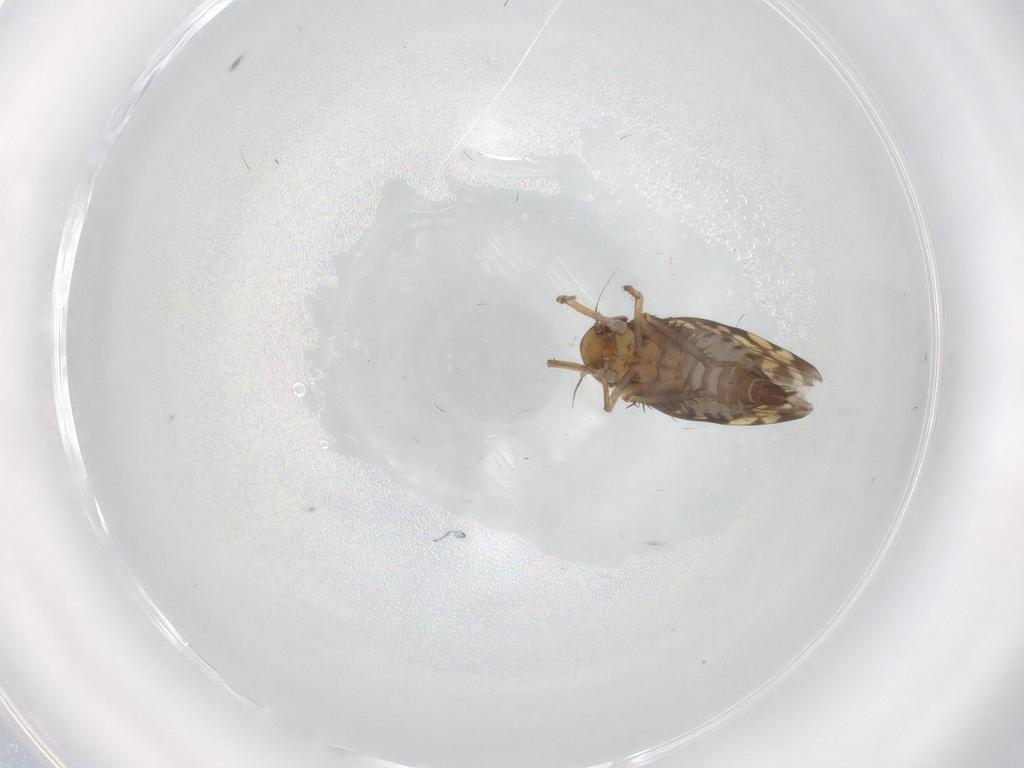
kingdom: Animalia
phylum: Arthropoda
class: Insecta
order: Hemiptera
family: Cicadellidae
